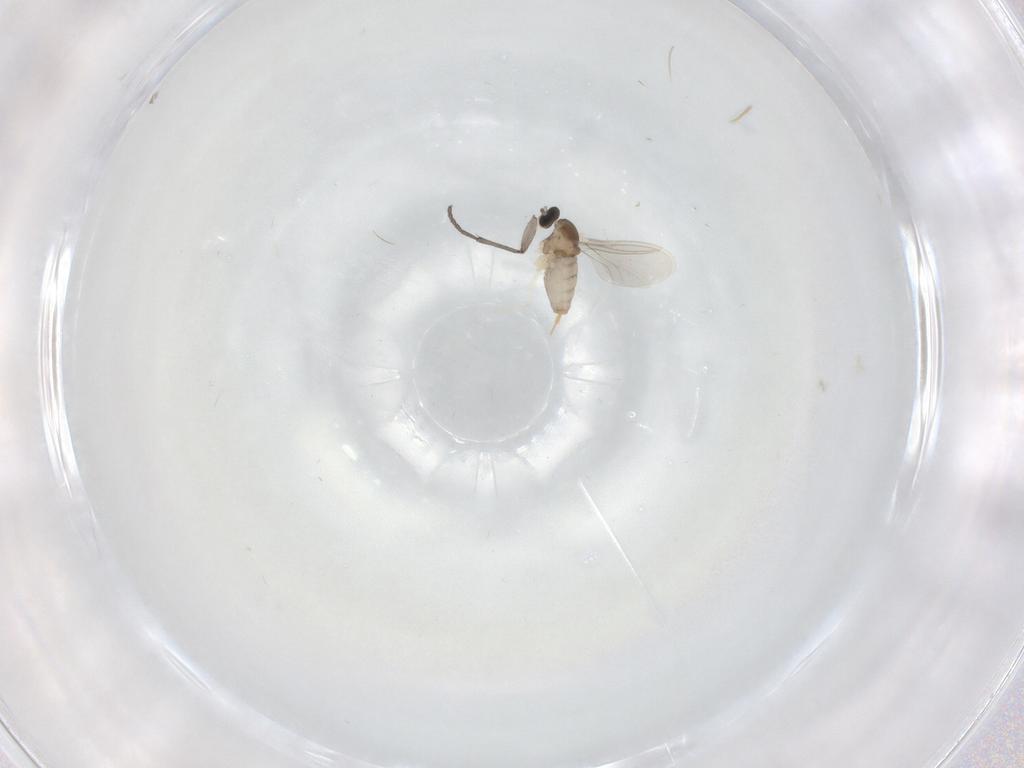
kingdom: Animalia
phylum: Arthropoda
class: Insecta
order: Diptera
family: Cecidomyiidae
